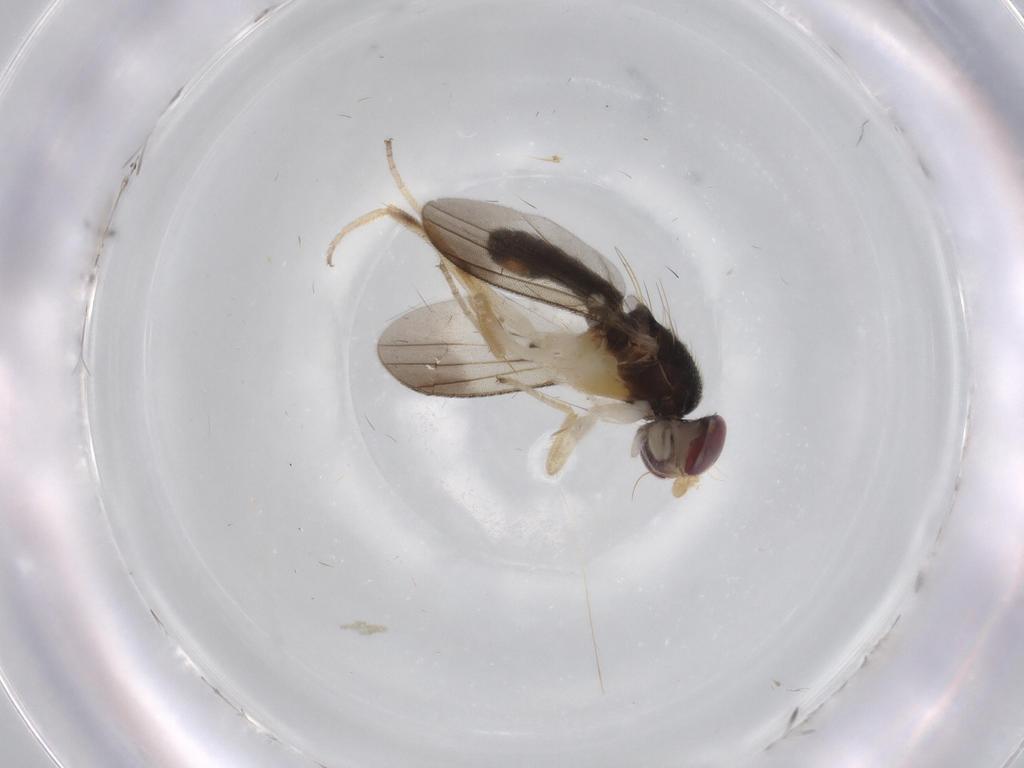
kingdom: Animalia
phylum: Arthropoda
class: Insecta
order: Diptera
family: Clusiidae
